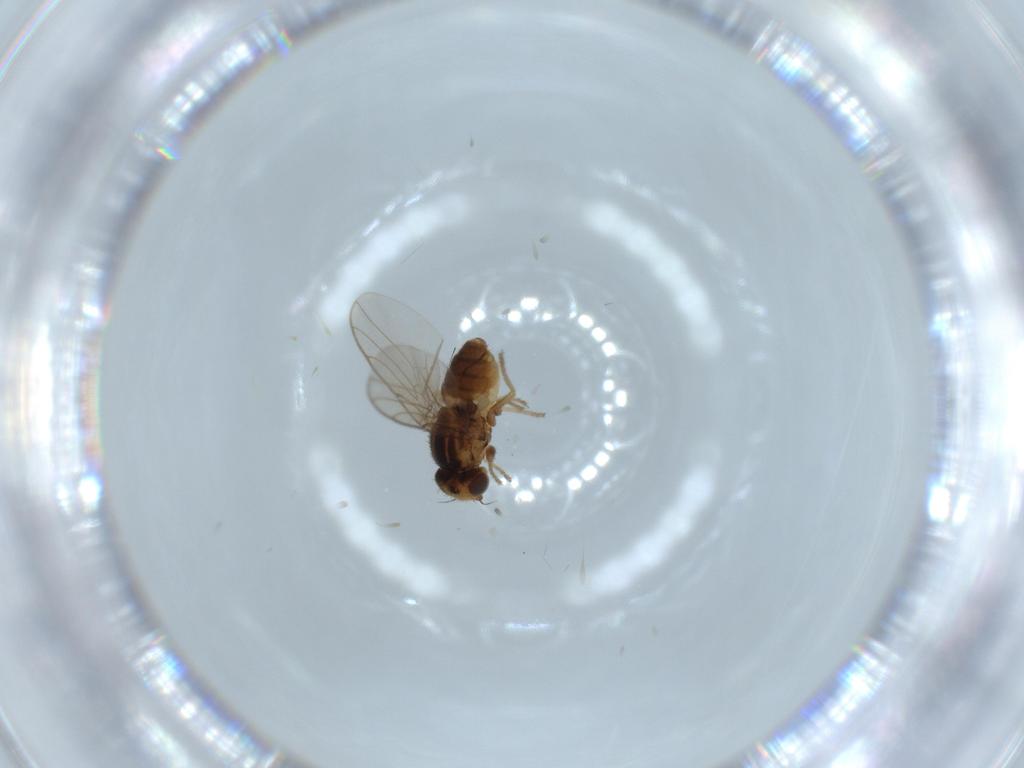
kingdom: Animalia
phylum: Arthropoda
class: Insecta
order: Diptera
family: Chloropidae
